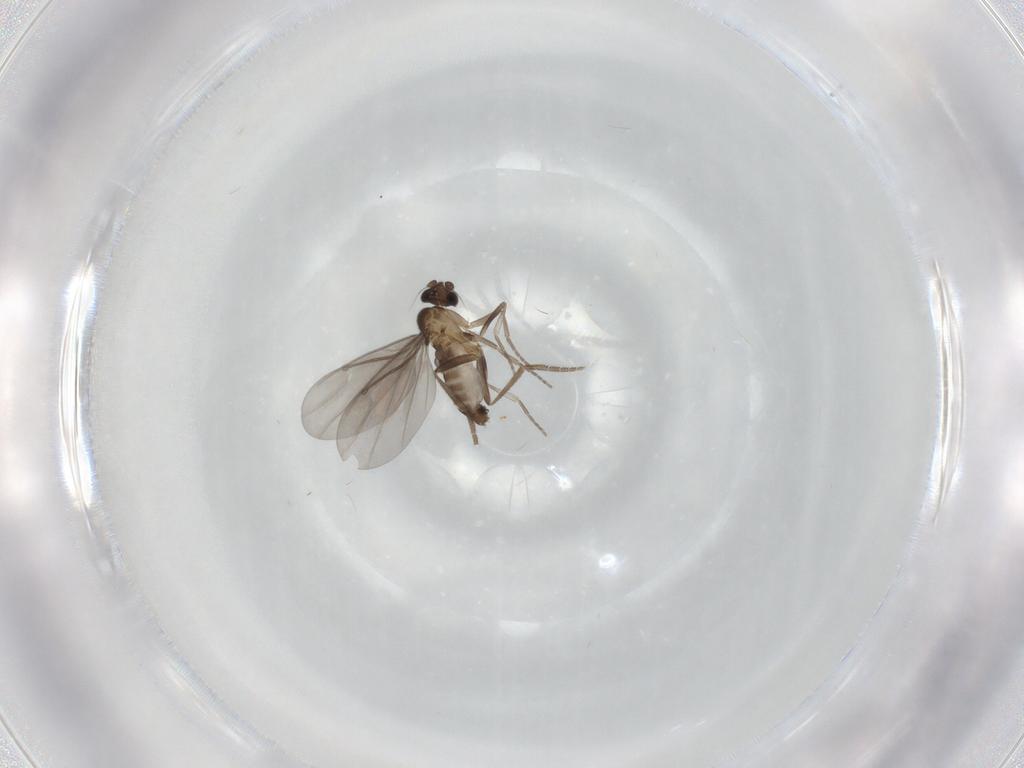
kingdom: Animalia
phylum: Arthropoda
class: Insecta
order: Diptera
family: Phoridae
